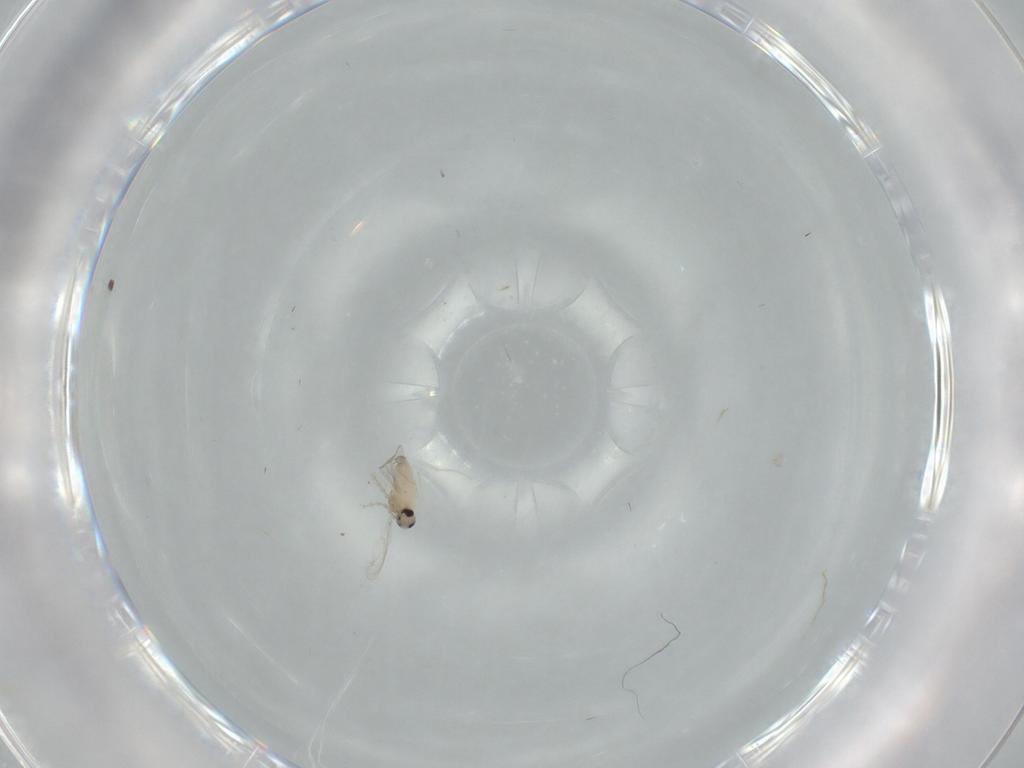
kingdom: Animalia
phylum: Arthropoda
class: Insecta
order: Diptera
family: Cecidomyiidae
